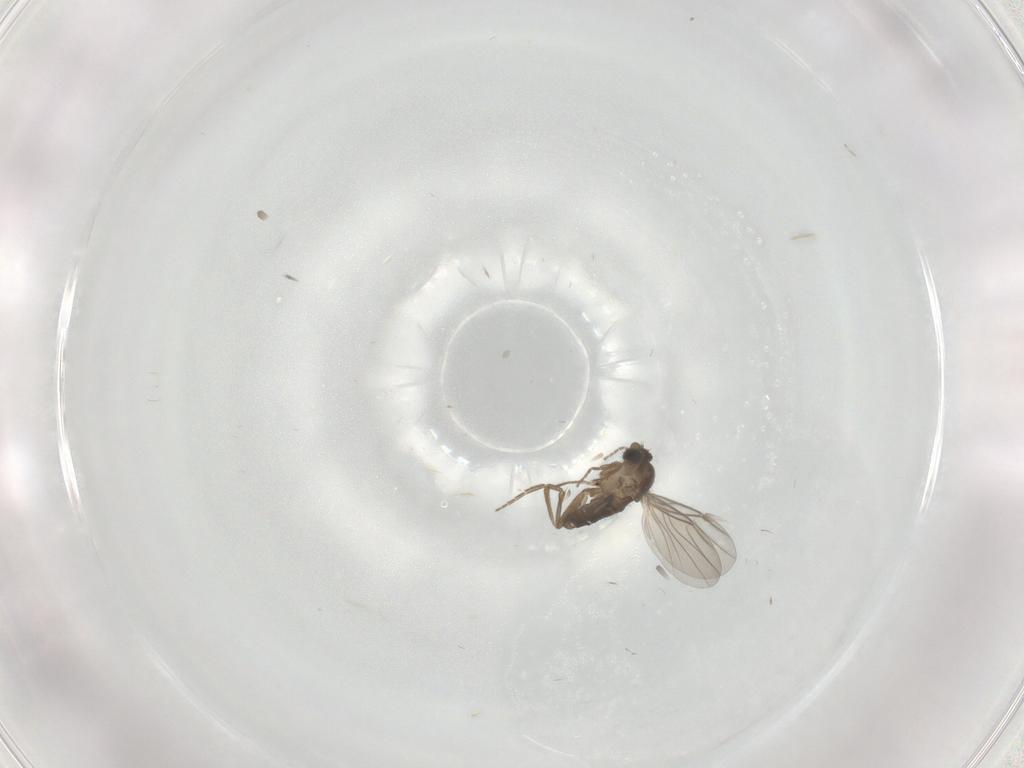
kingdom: Animalia
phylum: Arthropoda
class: Insecta
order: Diptera
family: Phoridae
